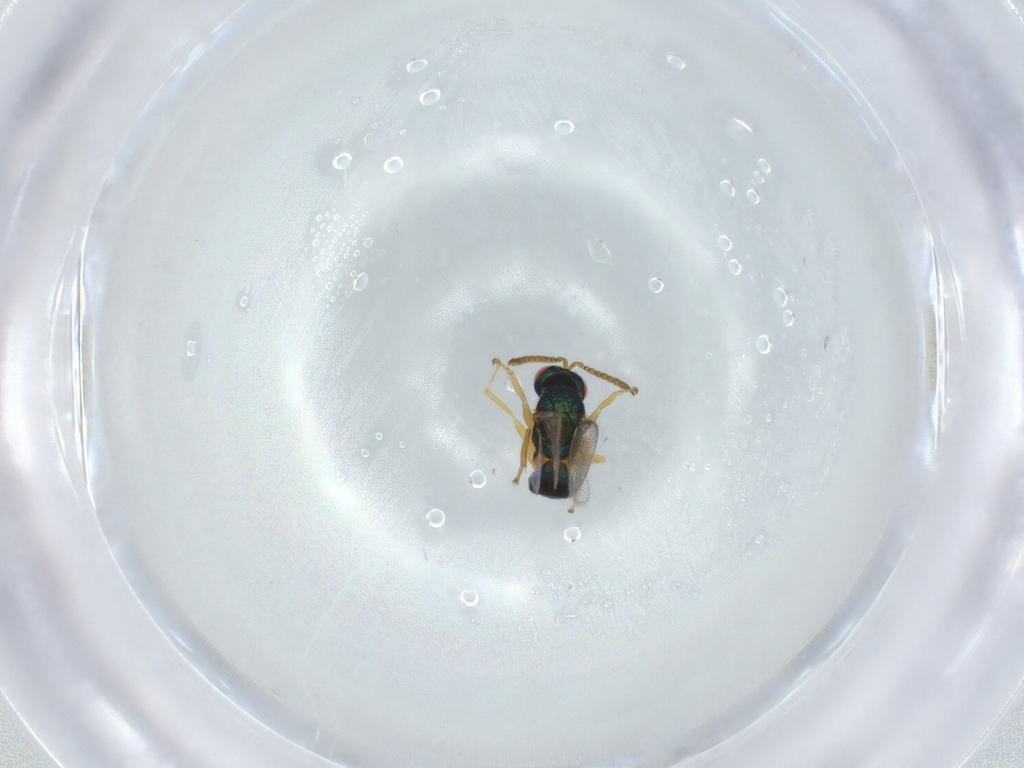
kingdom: Animalia
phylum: Arthropoda
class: Insecta
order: Hymenoptera
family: Torymidae
